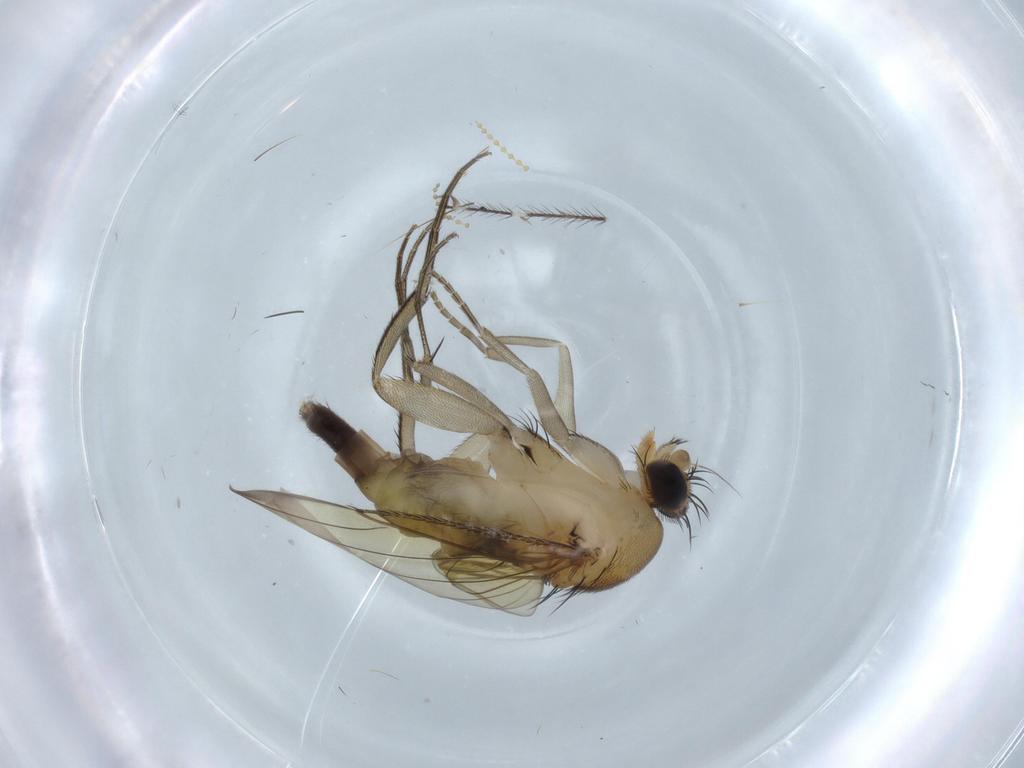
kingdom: Animalia
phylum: Arthropoda
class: Insecta
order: Diptera
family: Phoridae
